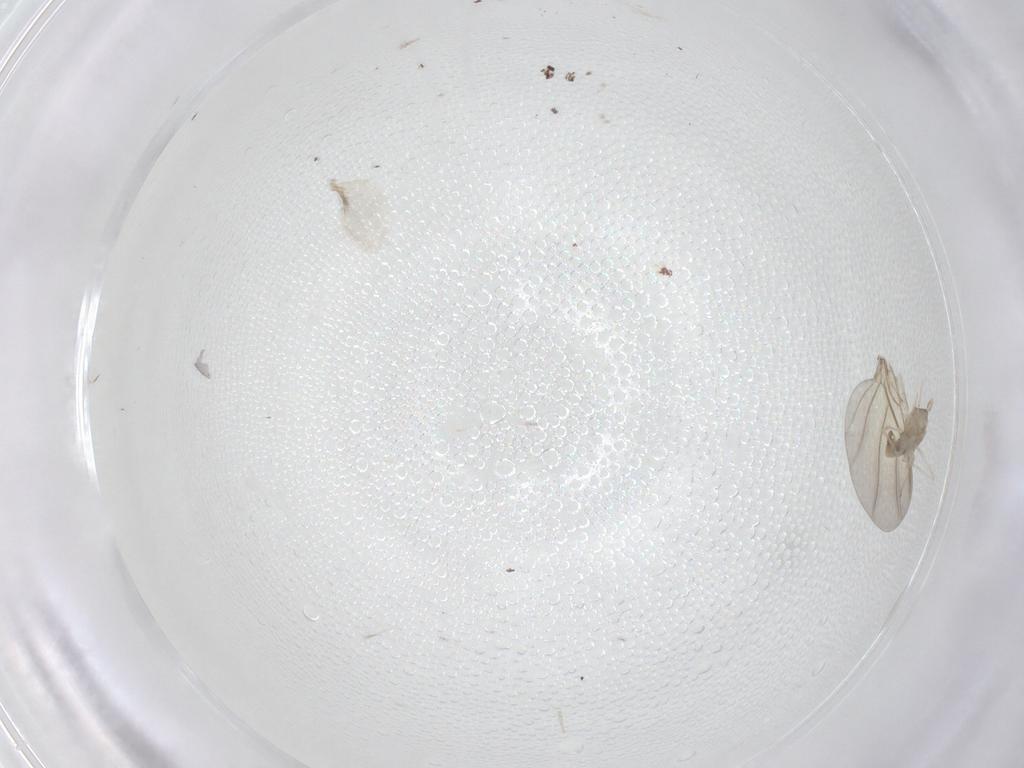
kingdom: Animalia
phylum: Arthropoda
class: Insecta
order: Diptera
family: Cecidomyiidae
